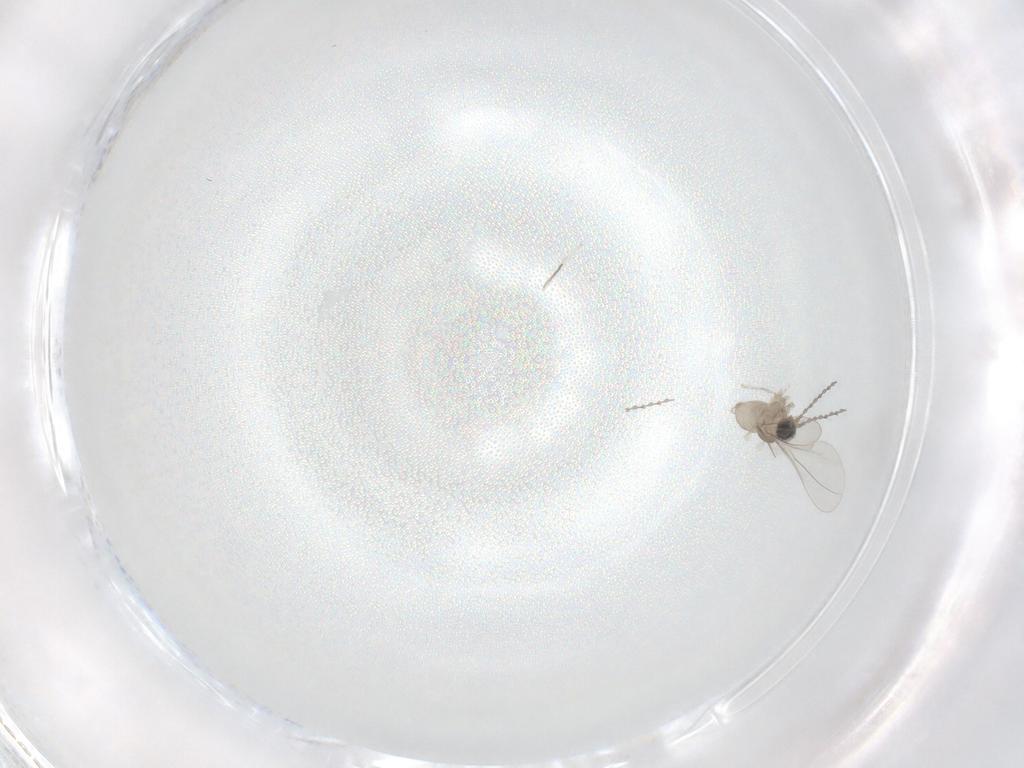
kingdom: Animalia
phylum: Arthropoda
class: Insecta
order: Diptera
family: Cecidomyiidae
